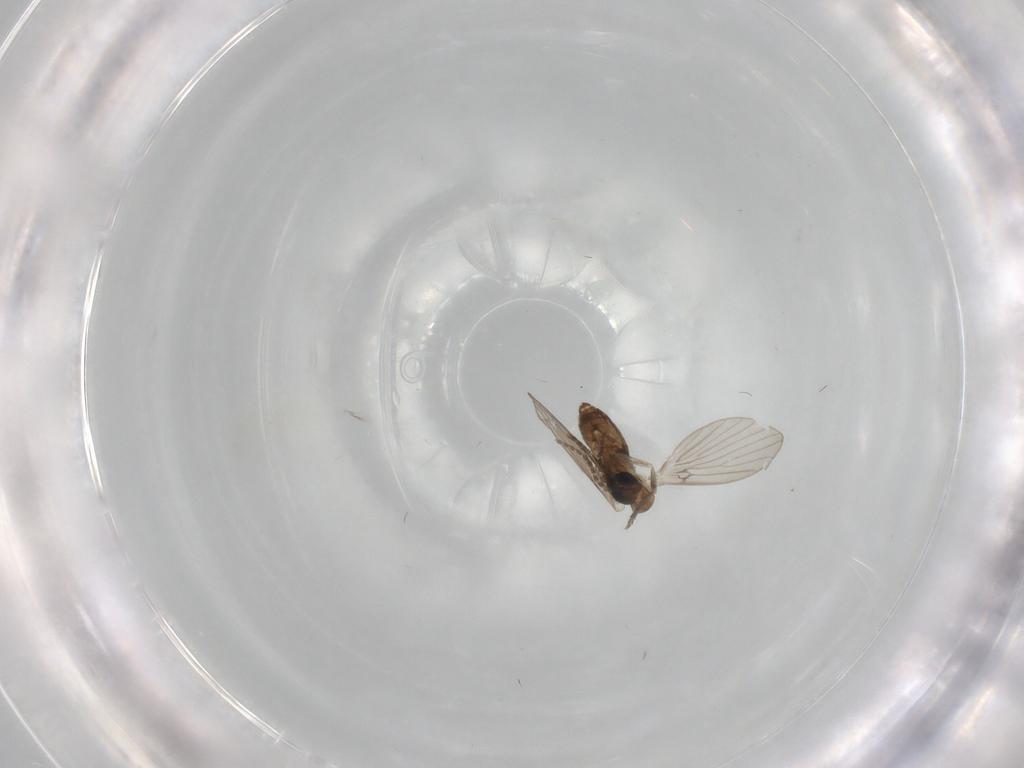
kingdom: Animalia
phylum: Arthropoda
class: Insecta
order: Diptera
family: Psychodidae
